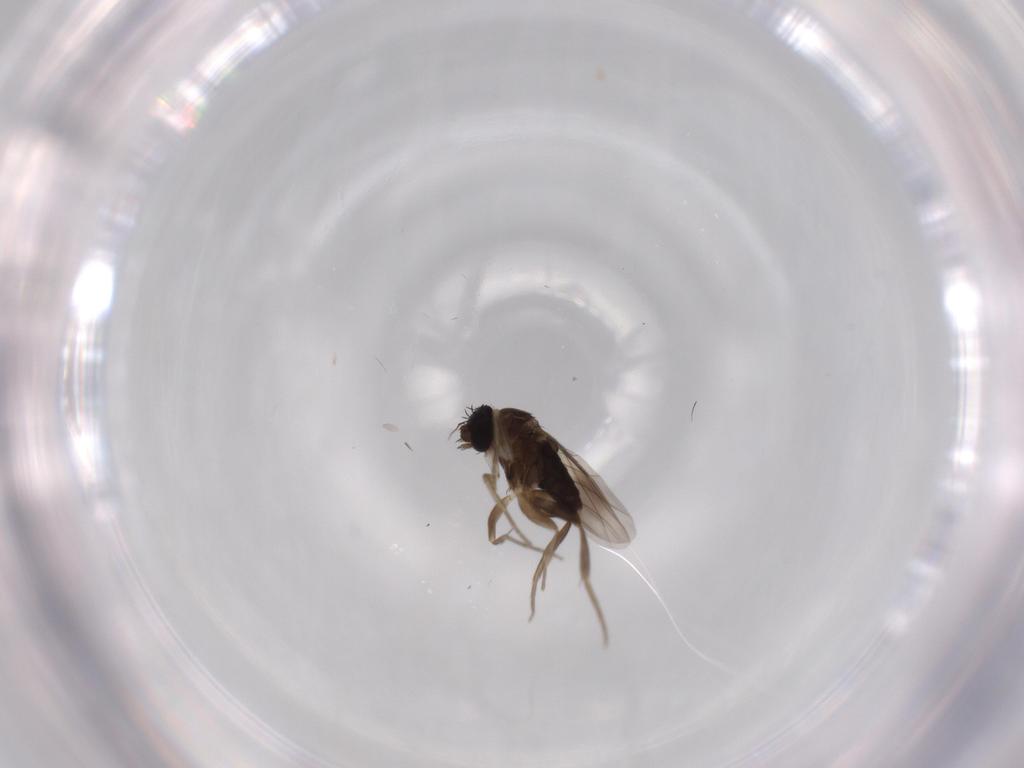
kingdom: Animalia
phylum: Arthropoda
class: Insecta
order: Diptera
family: Phoridae
